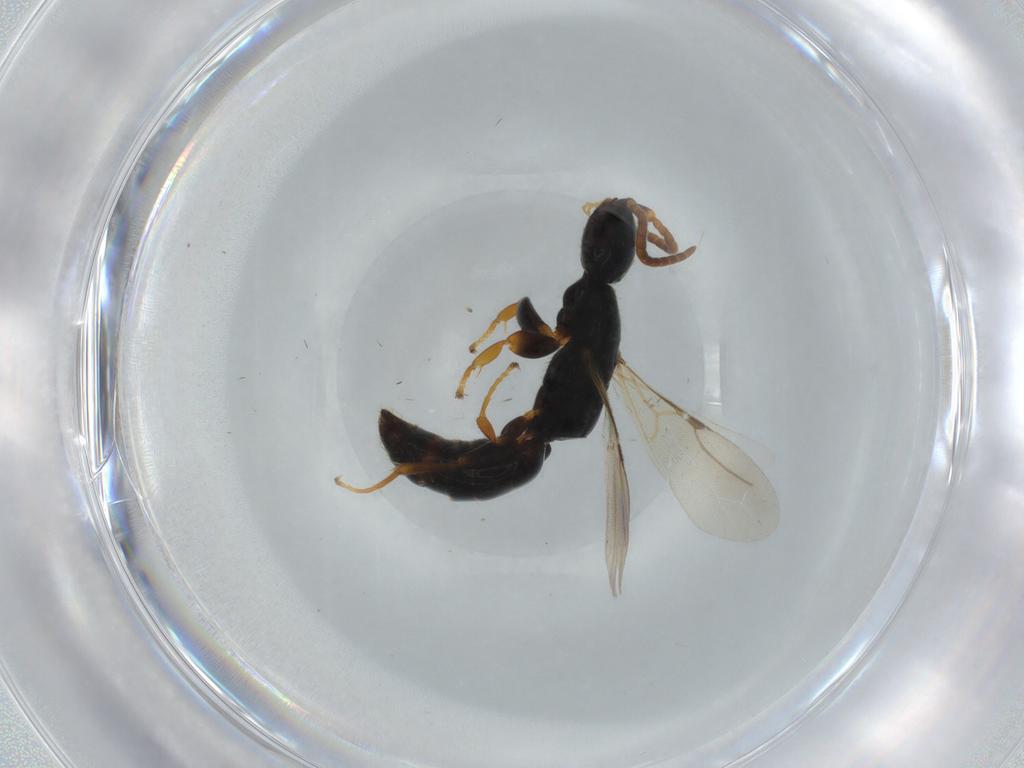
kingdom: Animalia
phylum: Arthropoda
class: Insecta
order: Hymenoptera
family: Bethylidae
